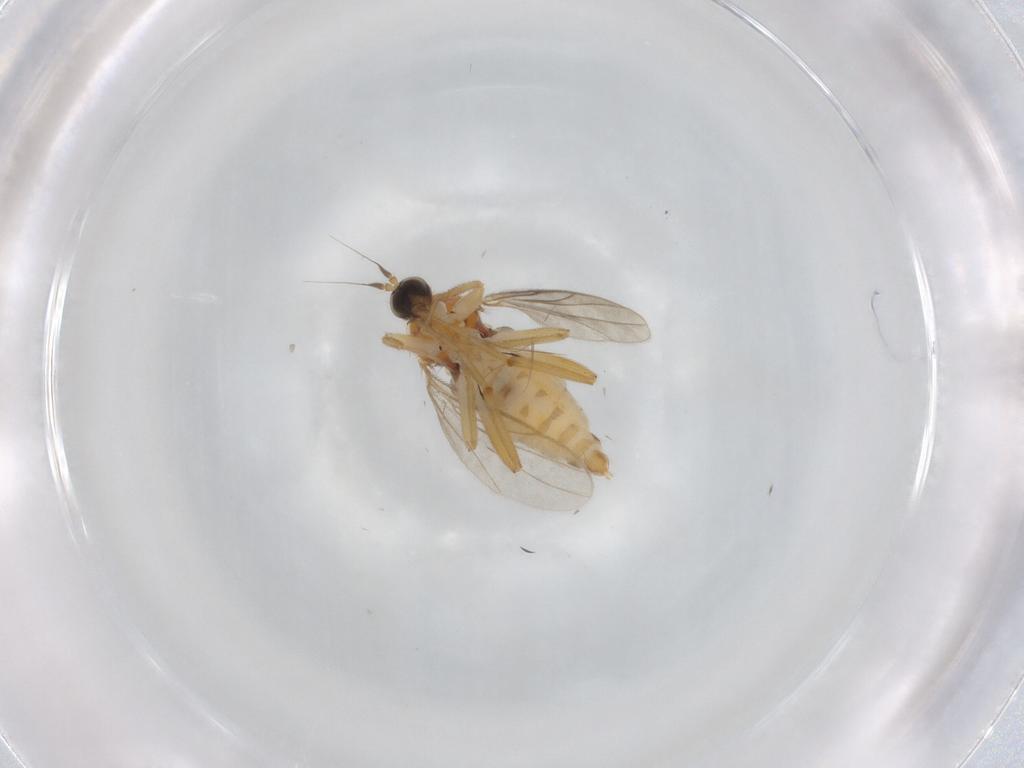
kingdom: Animalia
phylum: Arthropoda
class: Insecta
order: Diptera
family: Hybotidae
